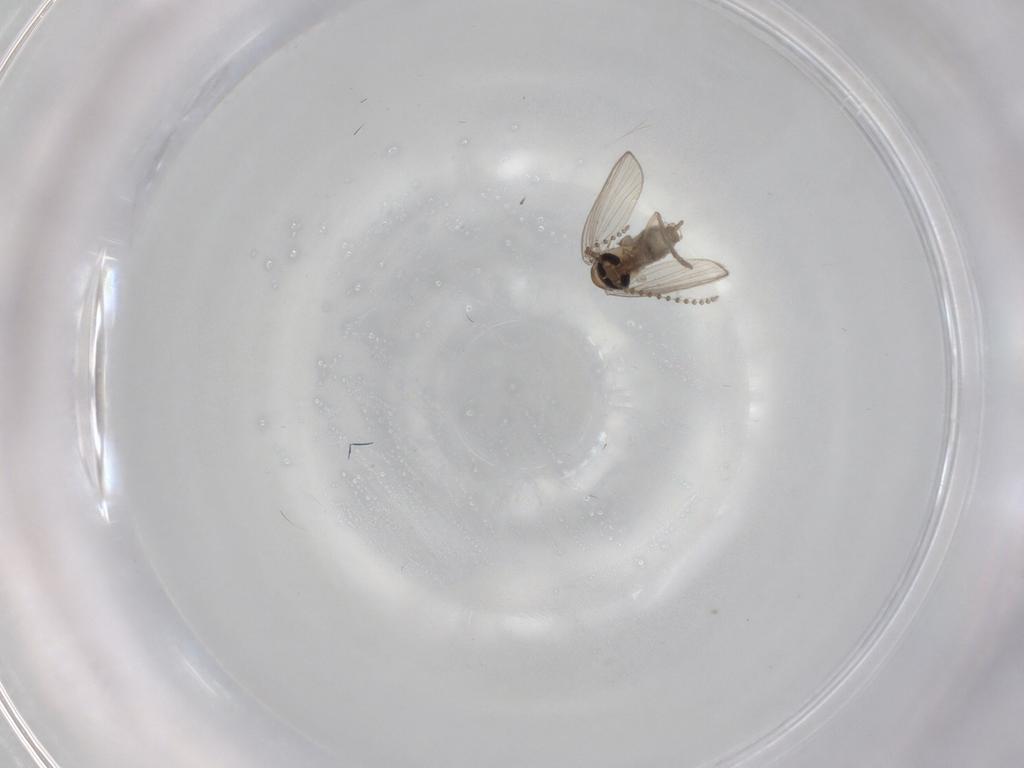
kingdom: Animalia
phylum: Arthropoda
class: Insecta
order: Diptera
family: Psychodidae
